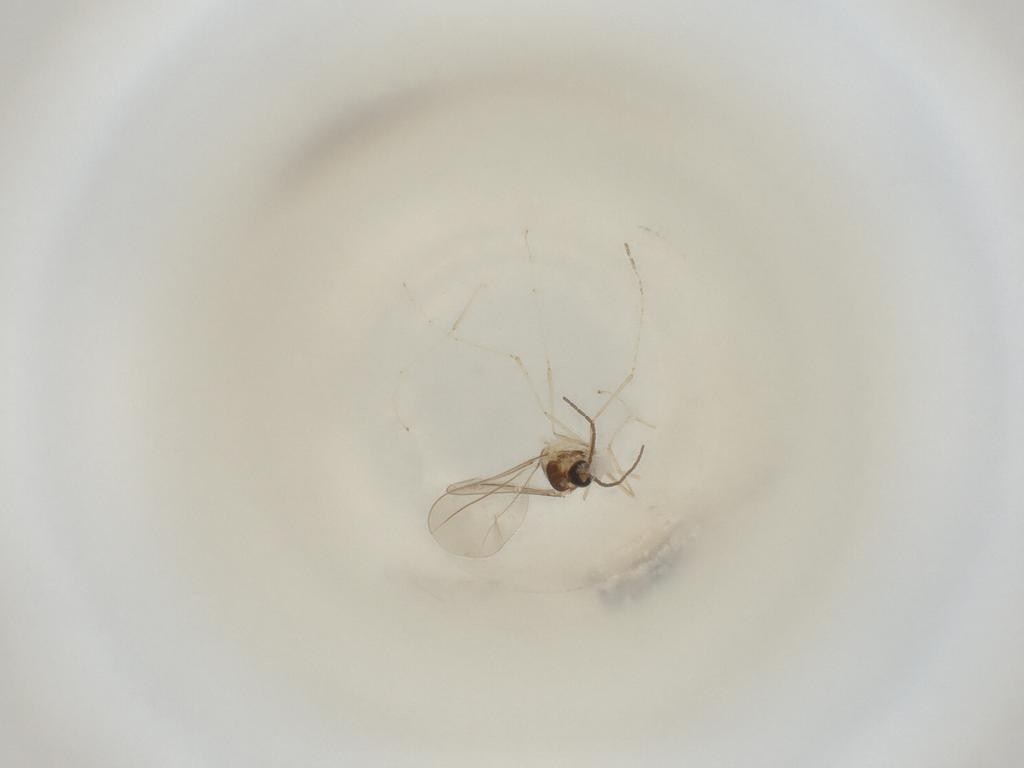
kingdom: Animalia
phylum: Arthropoda
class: Insecta
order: Diptera
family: Cecidomyiidae
